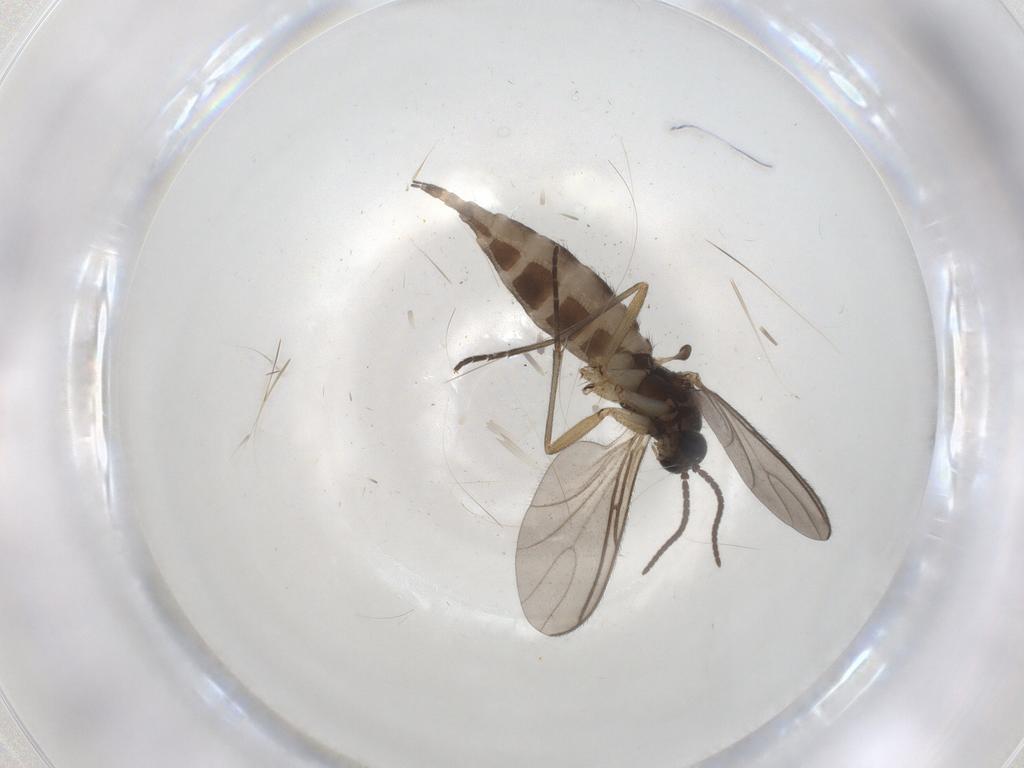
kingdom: Animalia
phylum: Arthropoda
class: Insecta
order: Diptera
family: Sciaridae
